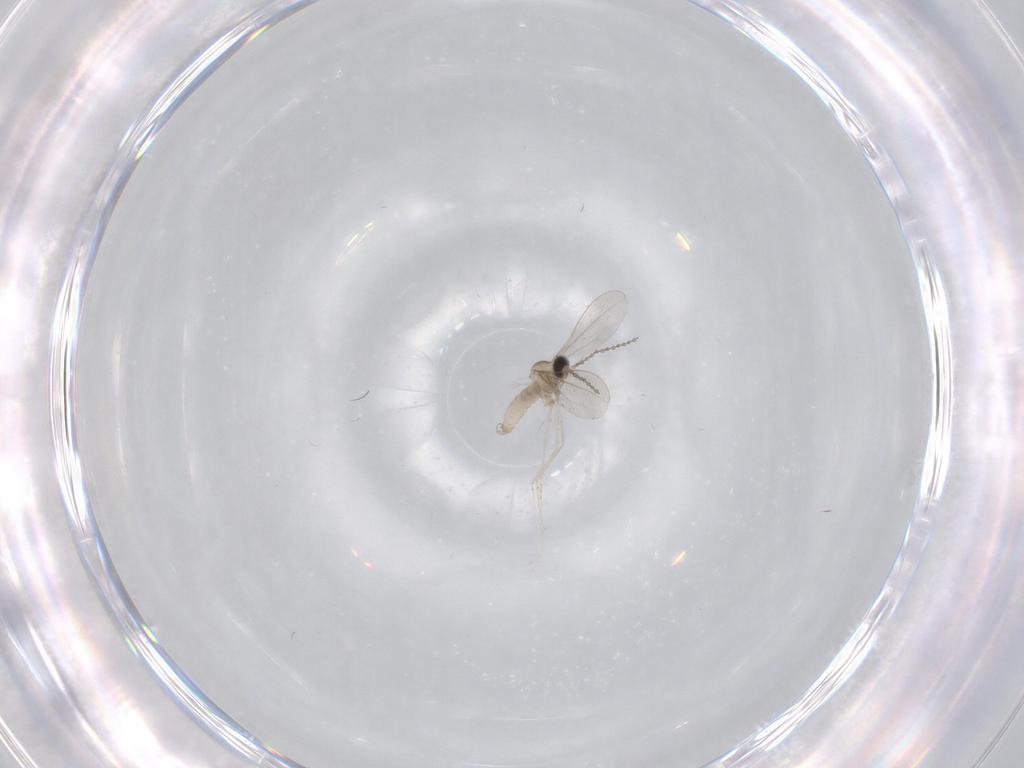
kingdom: Animalia
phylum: Arthropoda
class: Insecta
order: Diptera
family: Cecidomyiidae
